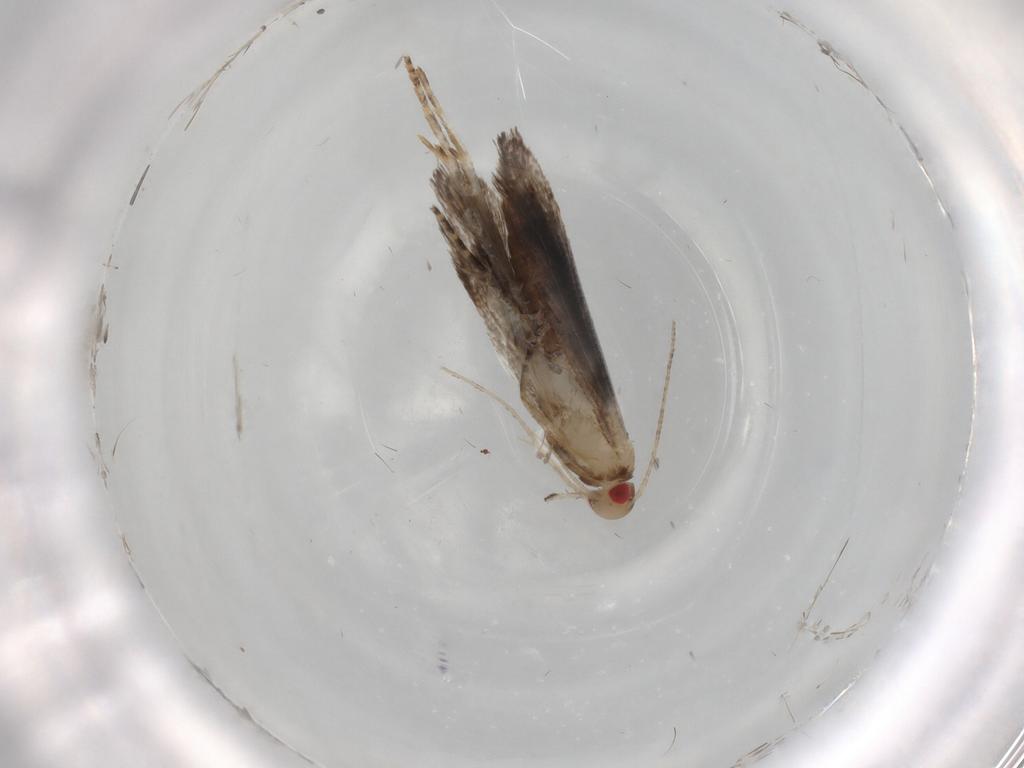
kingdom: Animalia
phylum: Arthropoda
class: Insecta
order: Lepidoptera
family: Gelechiidae
